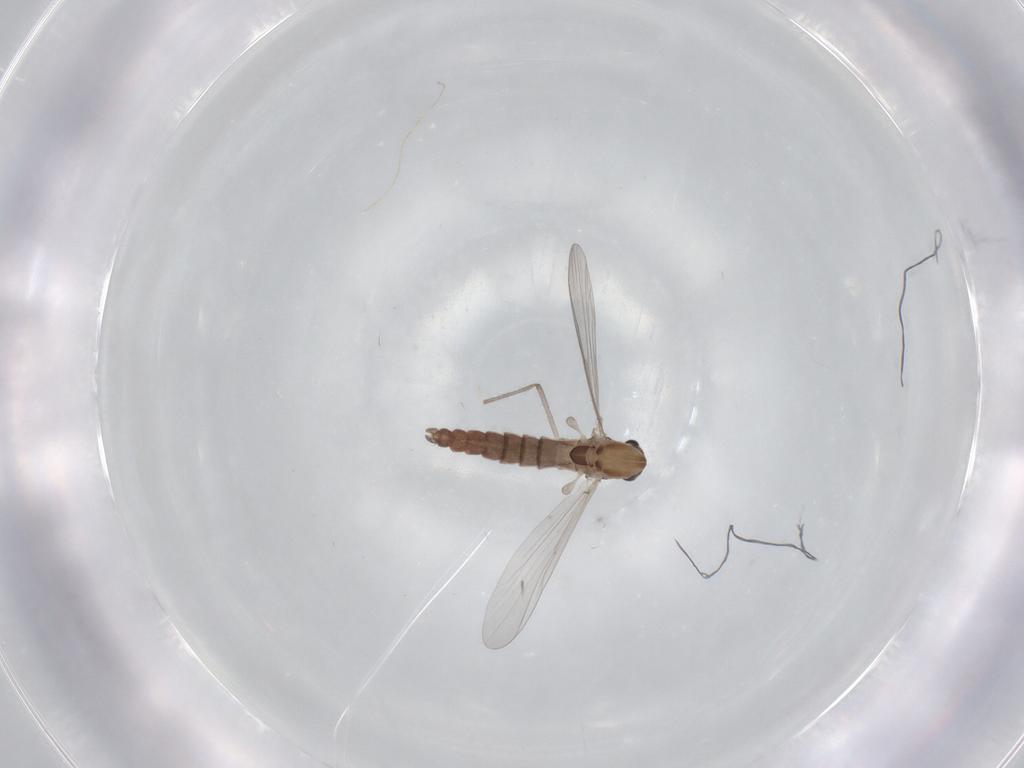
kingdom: Animalia
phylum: Arthropoda
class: Insecta
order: Diptera
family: Chironomidae
